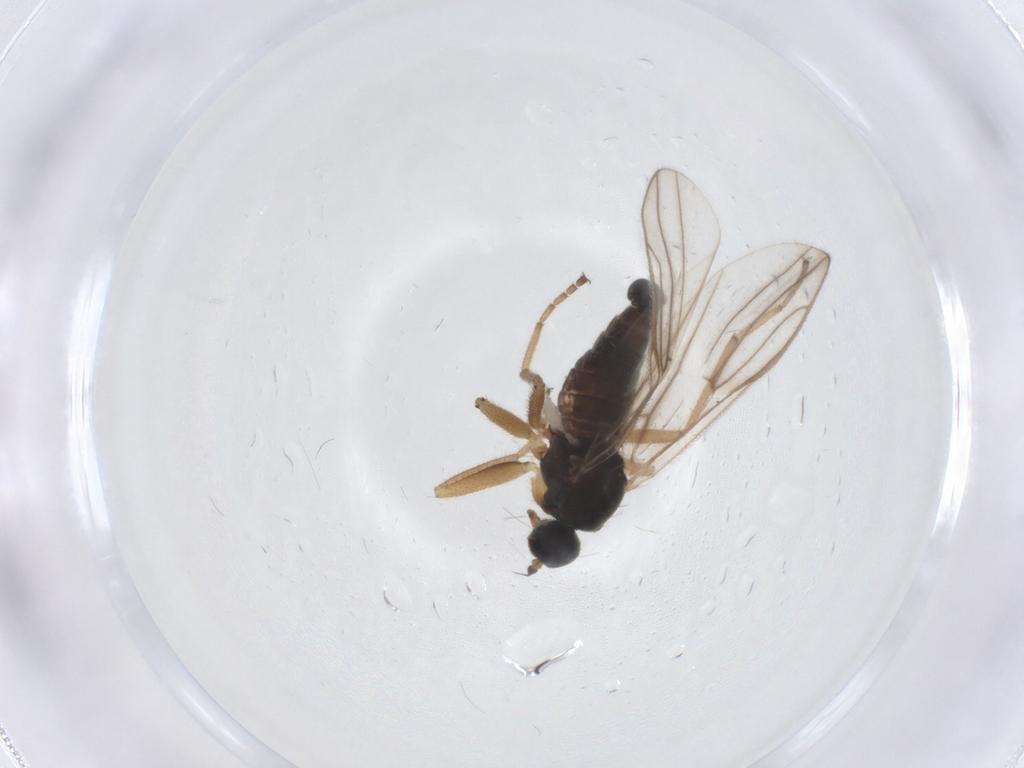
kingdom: Animalia
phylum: Arthropoda
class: Insecta
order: Diptera
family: Hybotidae
